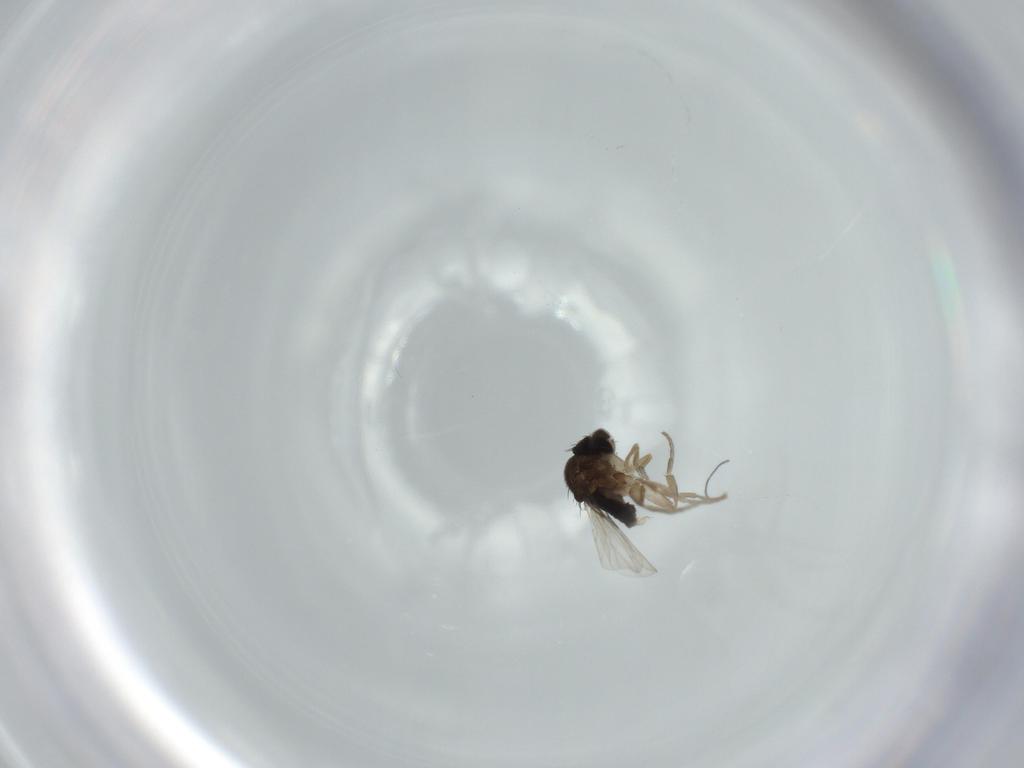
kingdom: Animalia
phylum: Arthropoda
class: Insecta
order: Diptera
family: Phoridae
